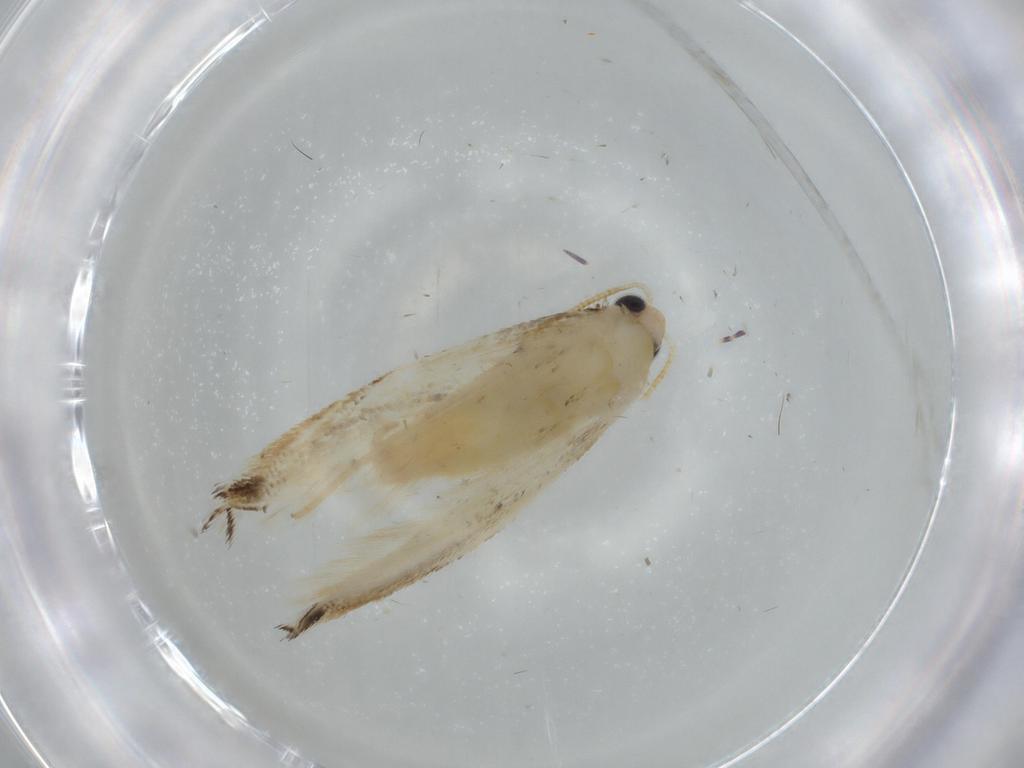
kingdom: Animalia
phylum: Arthropoda
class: Insecta
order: Lepidoptera
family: Tineidae
